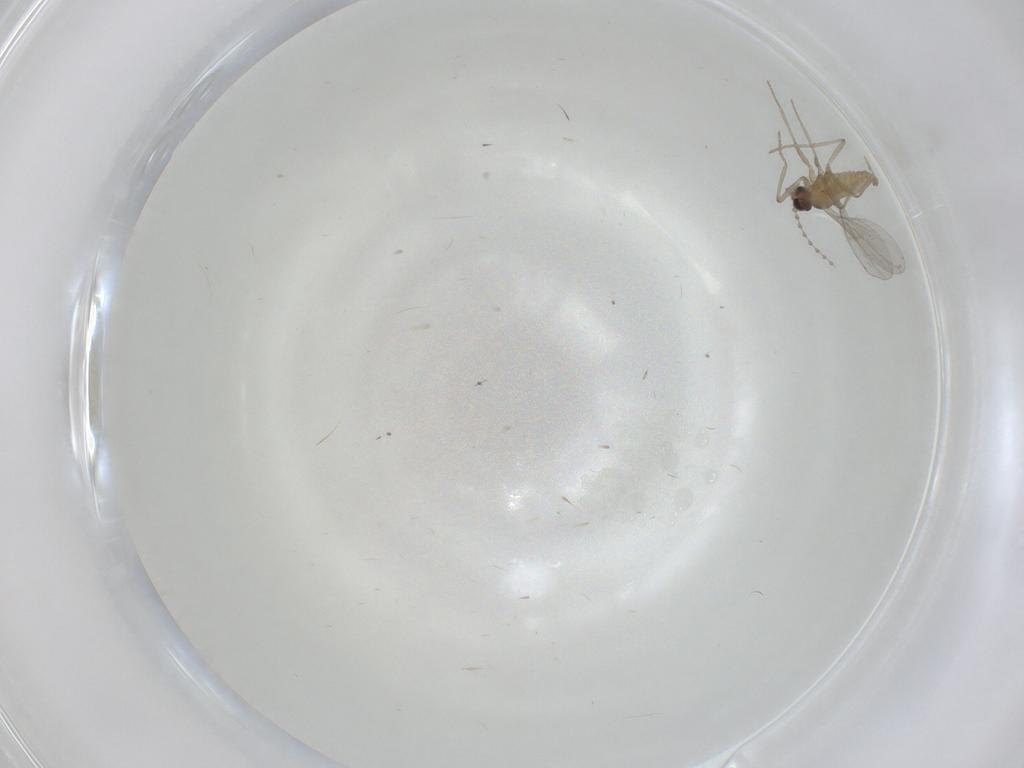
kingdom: Animalia
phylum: Arthropoda
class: Insecta
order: Diptera
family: Cecidomyiidae
